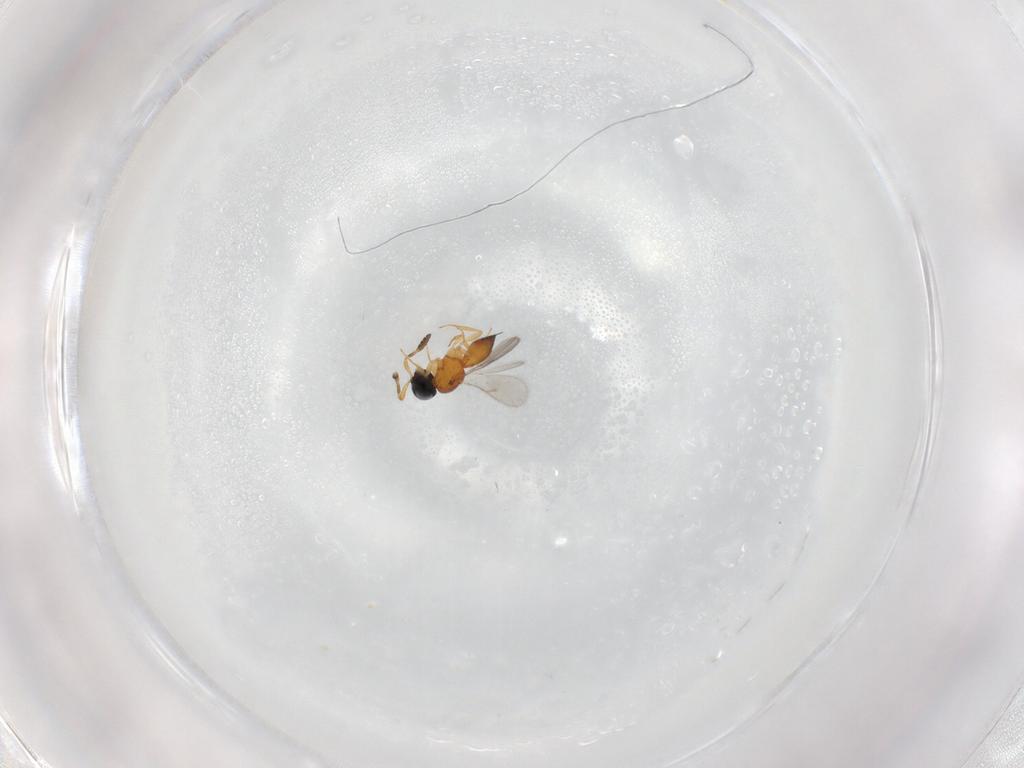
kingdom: Animalia
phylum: Arthropoda
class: Insecta
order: Hymenoptera
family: Scelionidae
